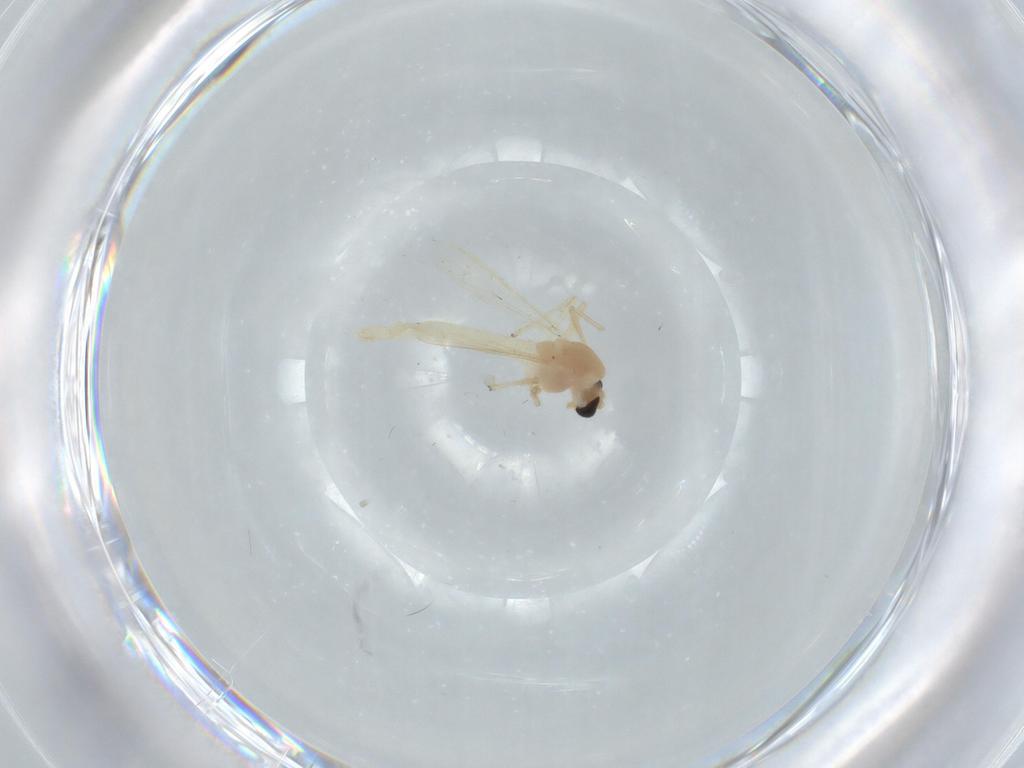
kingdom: Animalia
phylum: Arthropoda
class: Insecta
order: Diptera
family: Chironomidae
